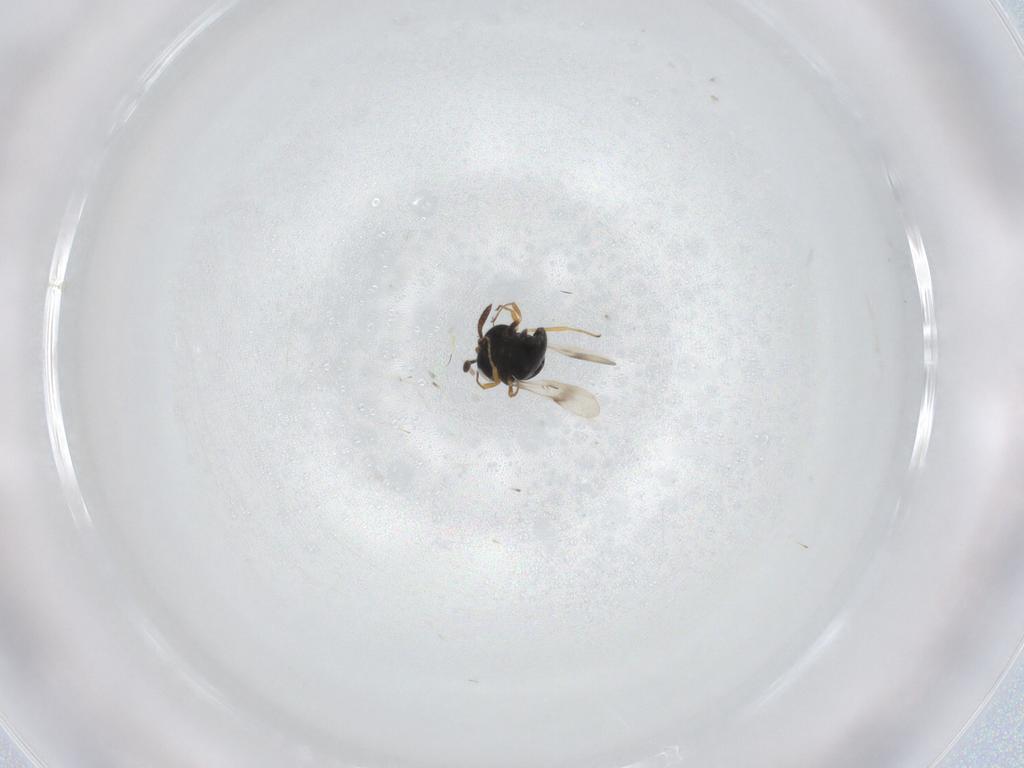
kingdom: Animalia
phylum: Arthropoda
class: Insecta
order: Hymenoptera
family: Scelionidae
